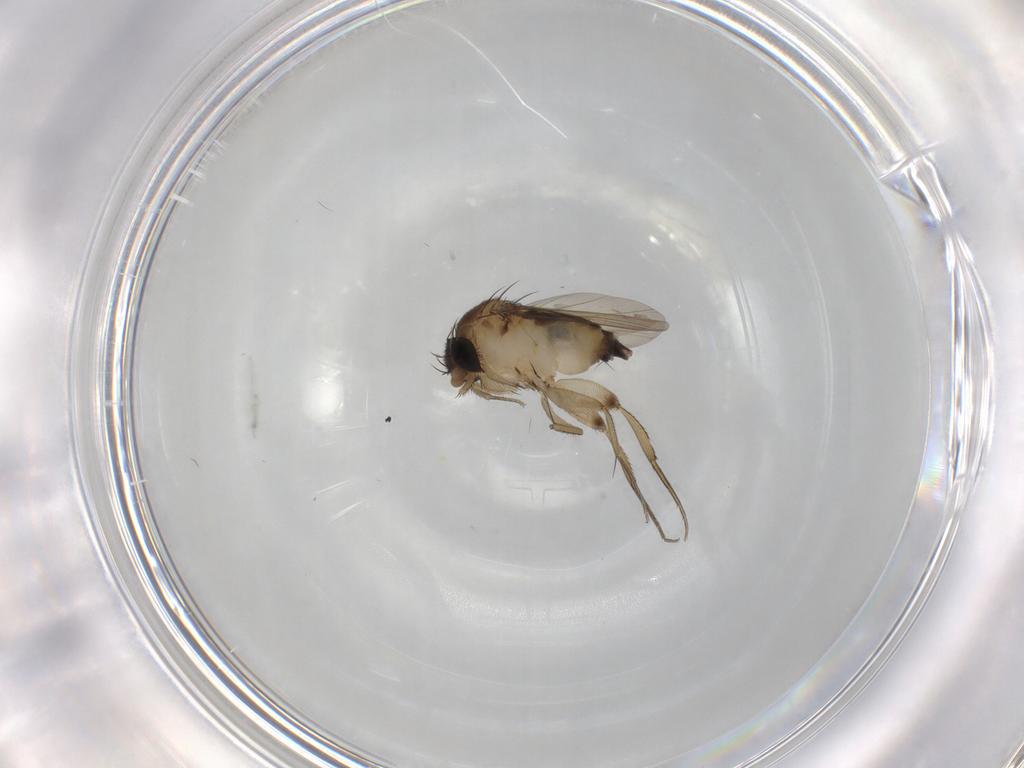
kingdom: Animalia
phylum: Arthropoda
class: Insecta
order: Diptera
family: Phoridae
